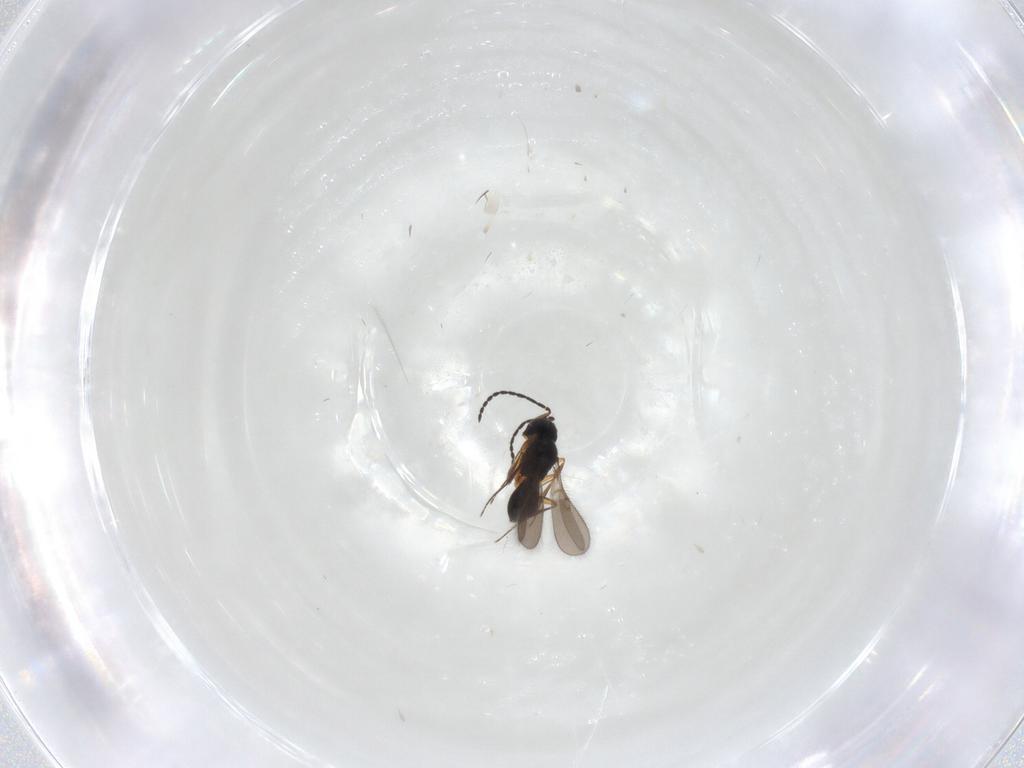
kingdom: Animalia
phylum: Arthropoda
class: Insecta
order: Hymenoptera
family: Scelionidae
